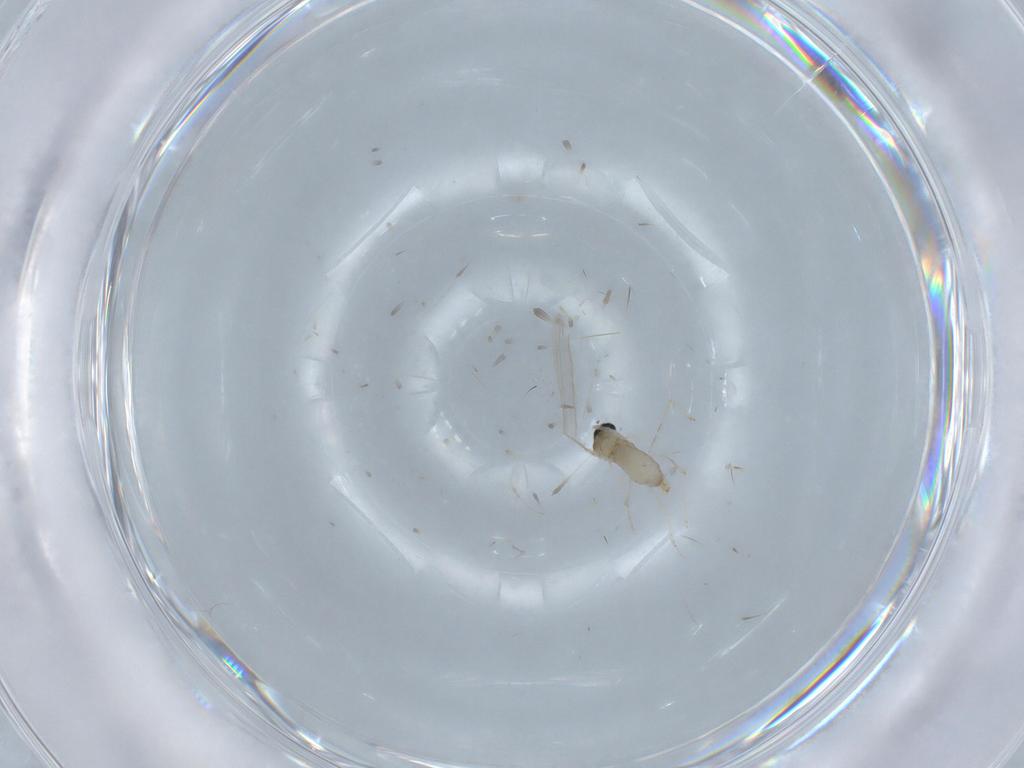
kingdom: Animalia
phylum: Arthropoda
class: Insecta
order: Diptera
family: Cecidomyiidae
